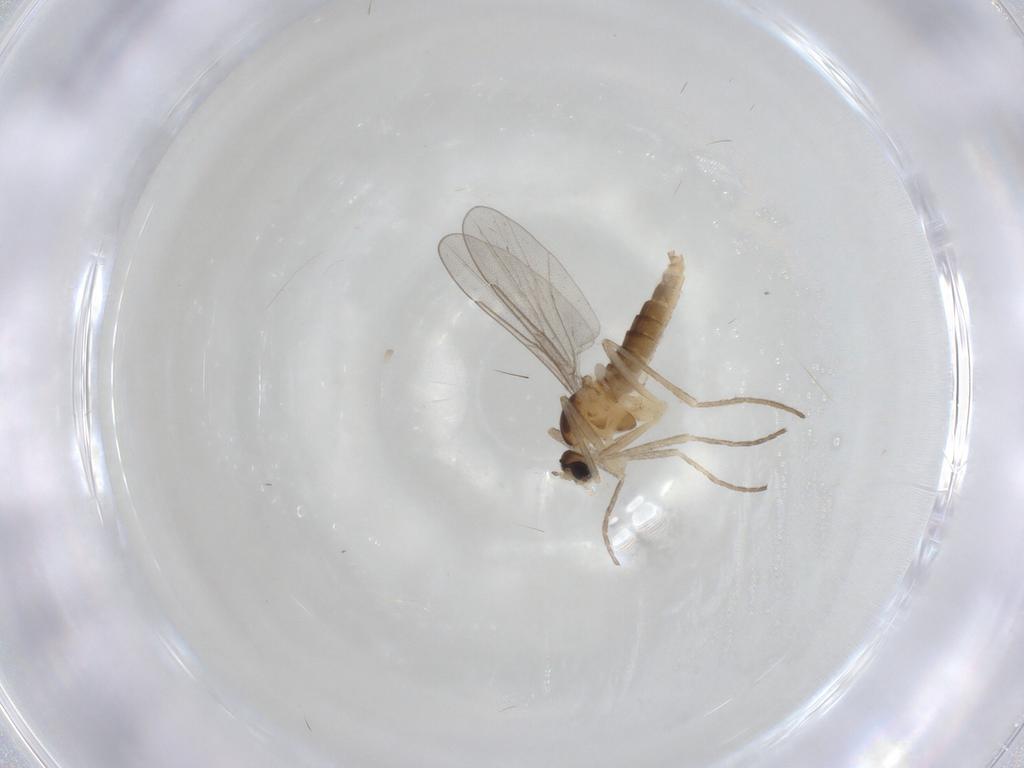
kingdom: Animalia
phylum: Arthropoda
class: Insecta
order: Diptera
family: Cecidomyiidae
